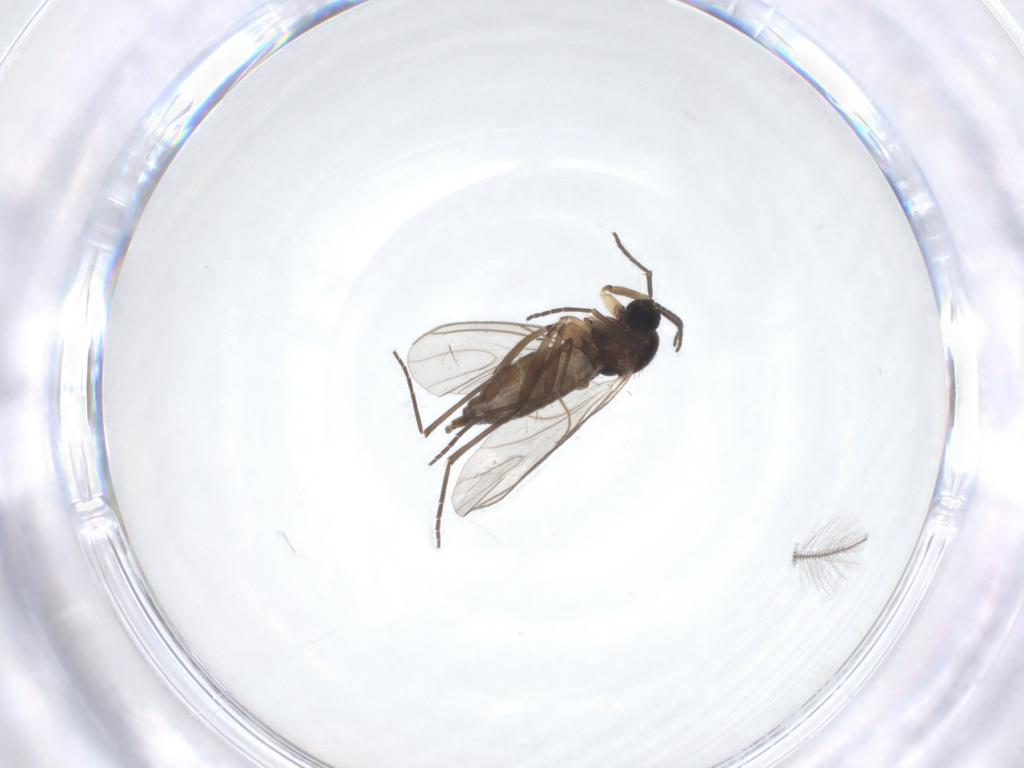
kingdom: Animalia
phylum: Arthropoda
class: Insecta
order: Diptera
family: Sciaridae
